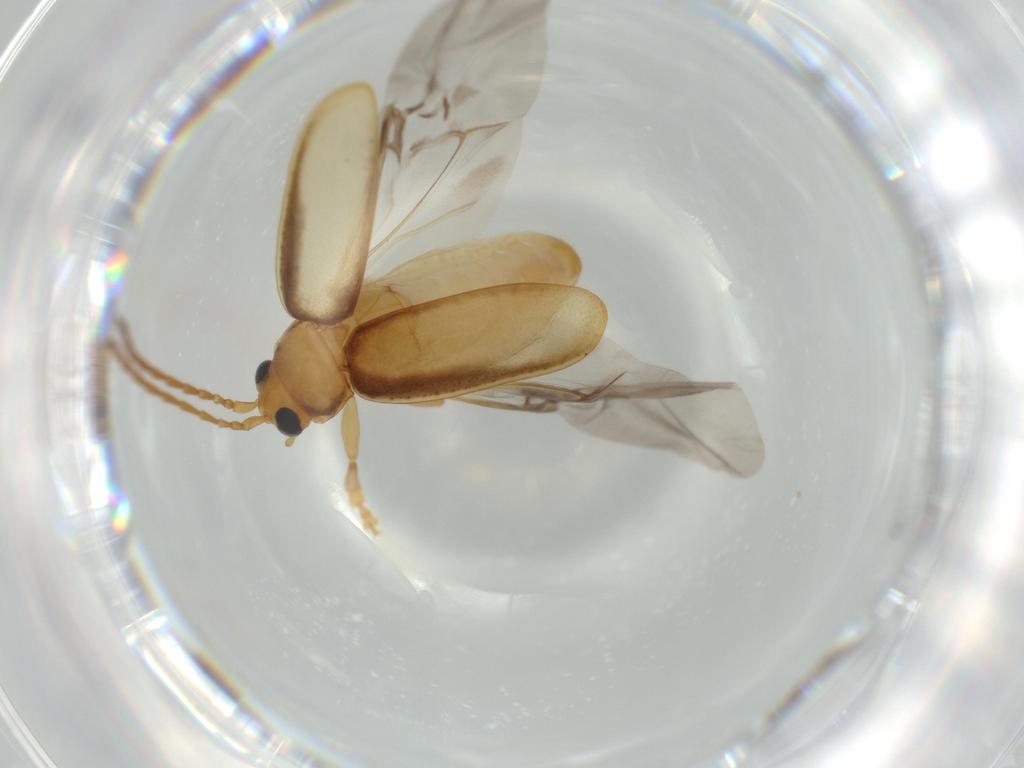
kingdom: Animalia
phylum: Arthropoda
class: Insecta
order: Coleoptera
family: Chrysomelidae
